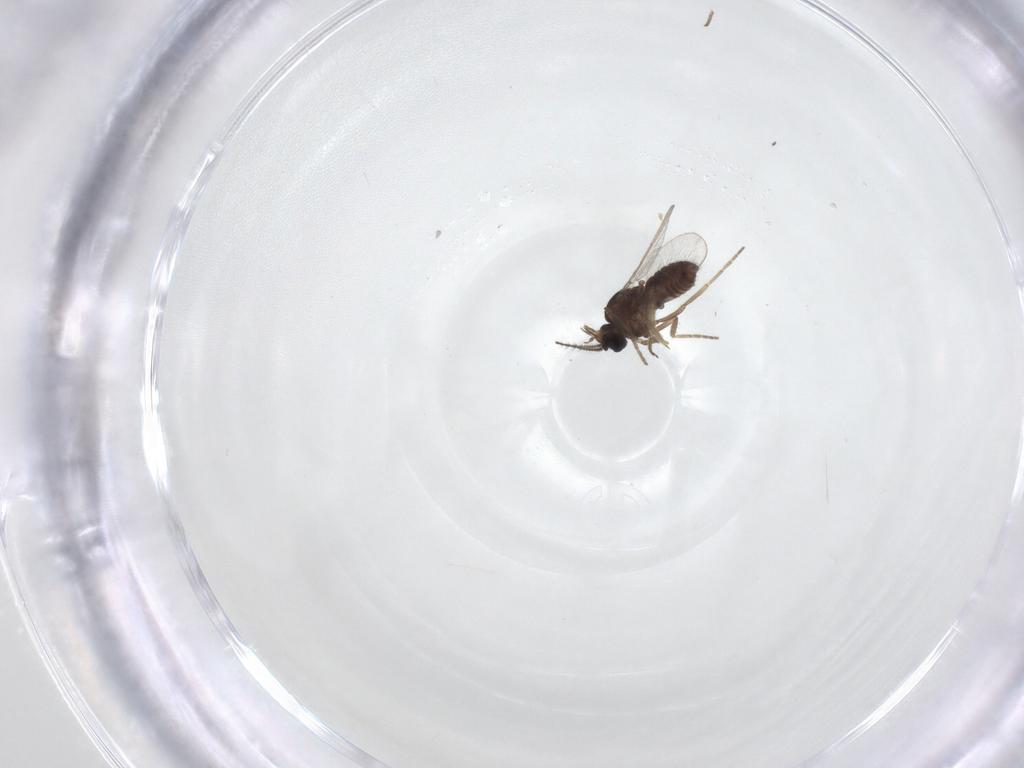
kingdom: Animalia
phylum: Arthropoda
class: Insecta
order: Diptera
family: Ceratopogonidae
